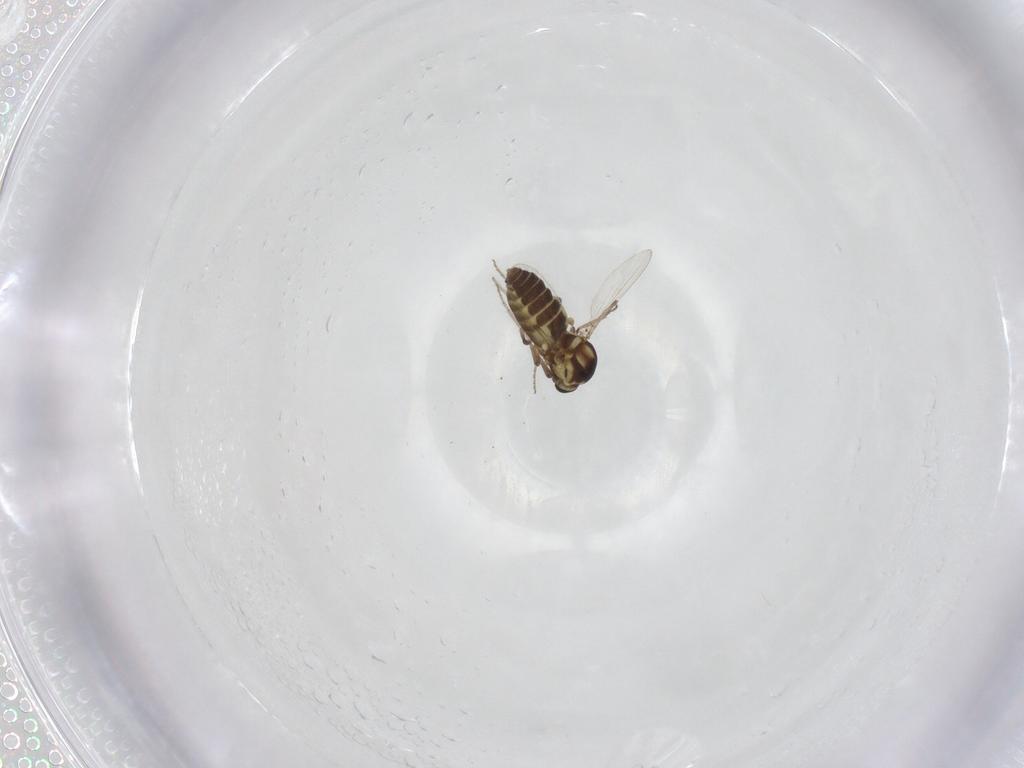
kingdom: Animalia
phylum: Arthropoda
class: Insecta
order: Diptera
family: Ceratopogonidae
